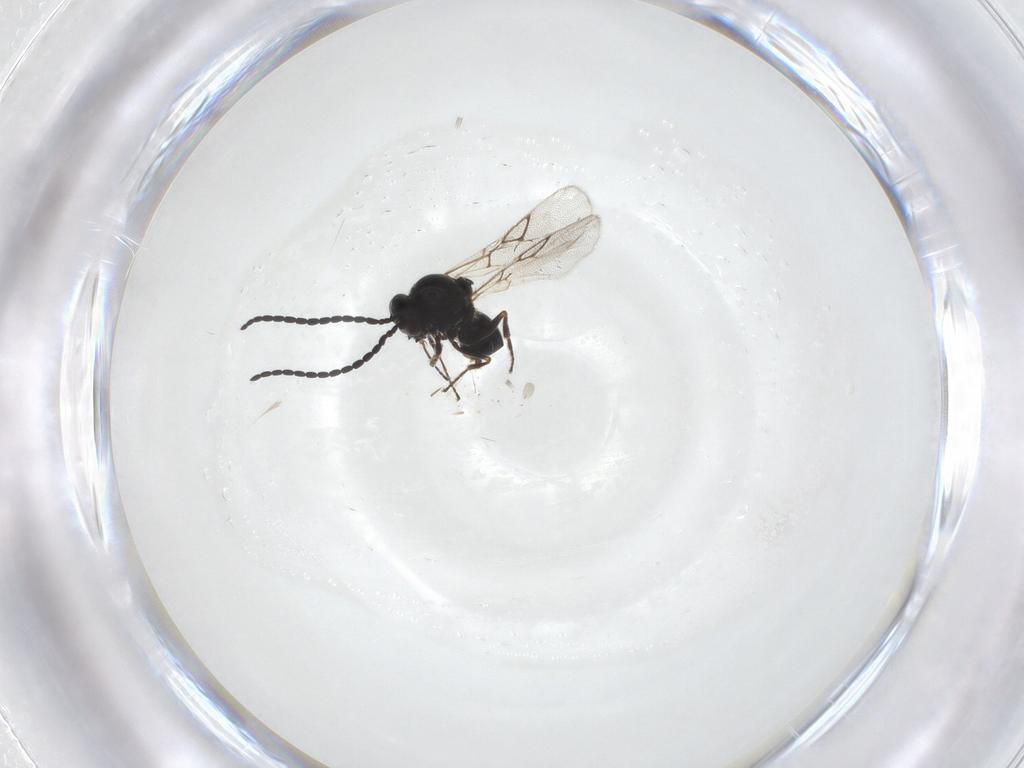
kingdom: Animalia
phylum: Arthropoda
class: Insecta
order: Hymenoptera
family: Figitidae
